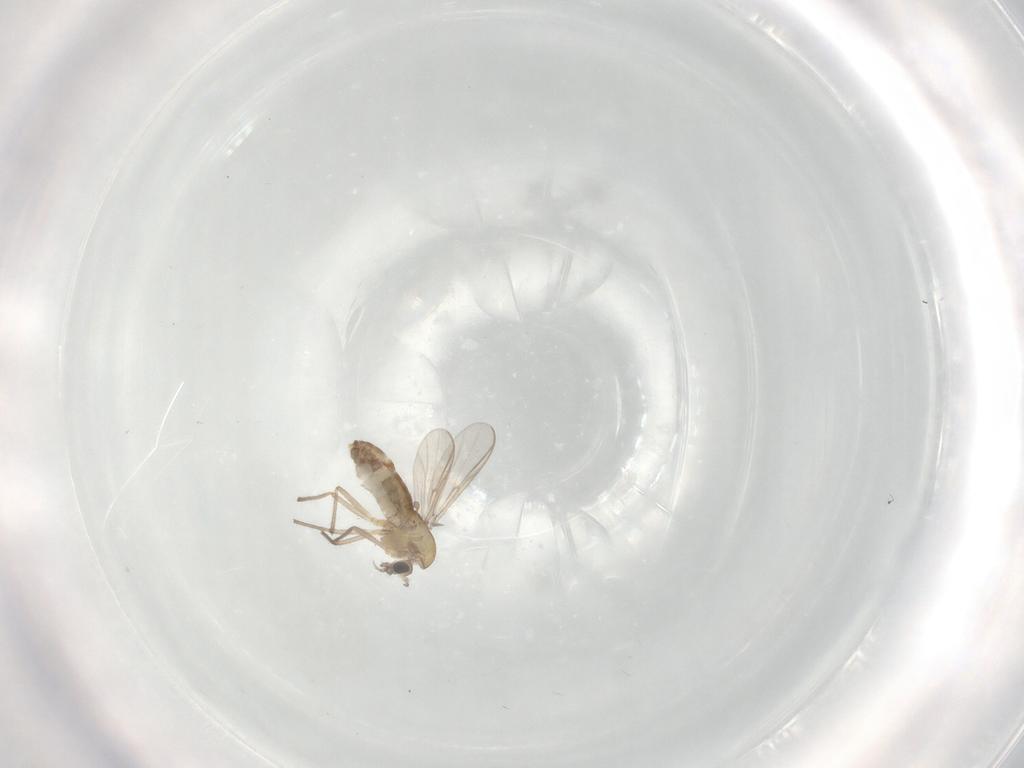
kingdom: Animalia
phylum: Arthropoda
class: Insecta
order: Diptera
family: Chironomidae
